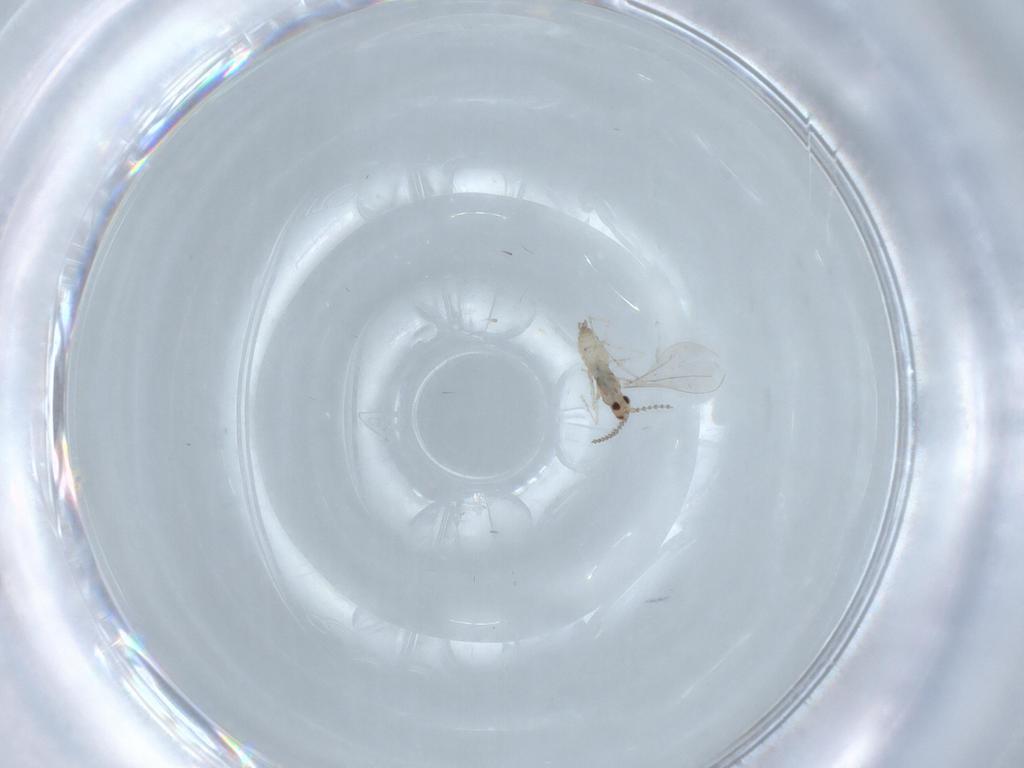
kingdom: Animalia
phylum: Arthropoda
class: Insecta
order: Diptera
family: Cecidomyiidae
